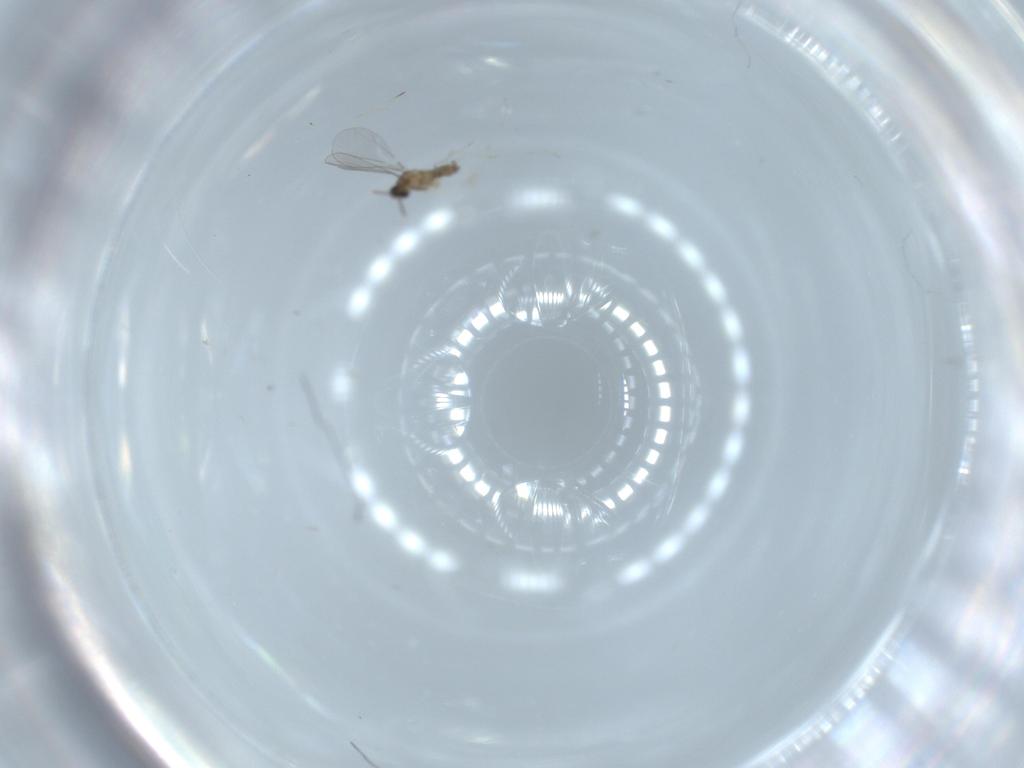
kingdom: Animalia
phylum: Arthropoda
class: Insecta
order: Diptera
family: Cecidomyiidae
